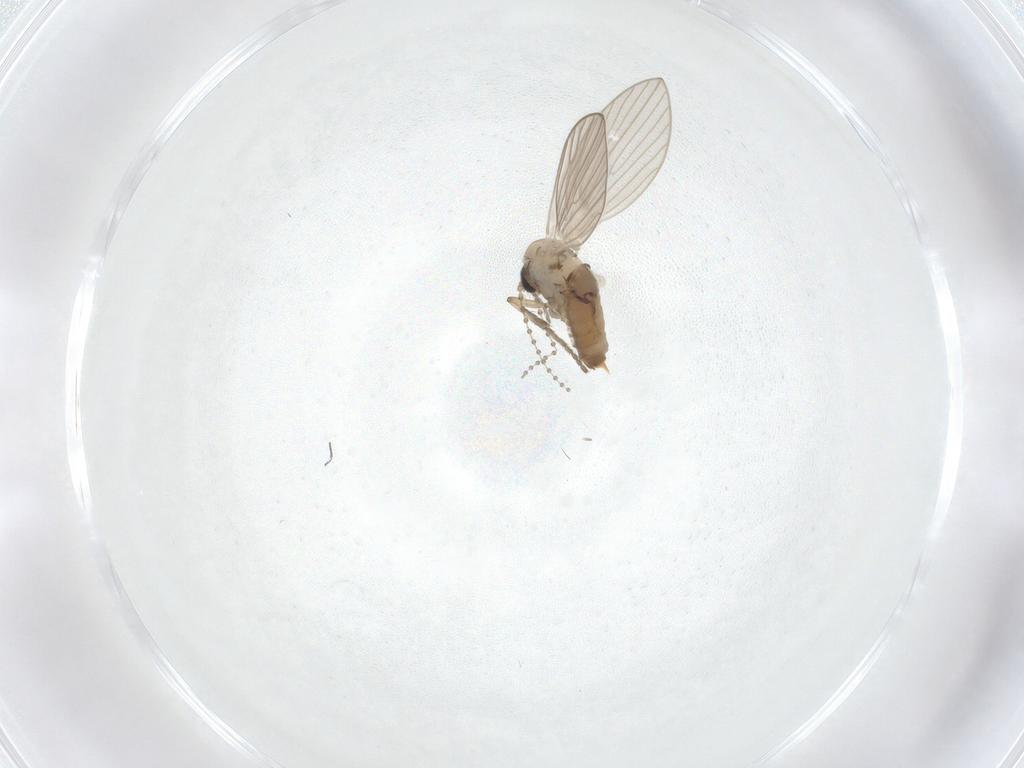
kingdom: Animalia
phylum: Arthropoda
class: Insecta
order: Diptera
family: Psychodidae
